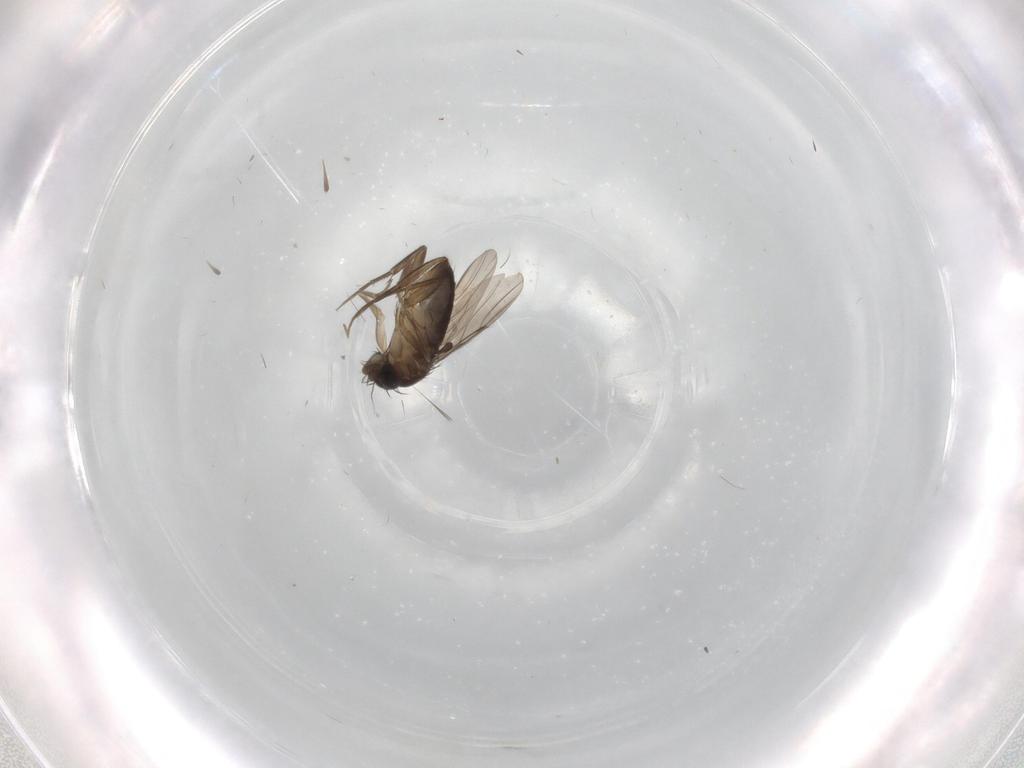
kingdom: Animalia
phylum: Arthropoda
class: Insecta
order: Diptera
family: Phoridae
